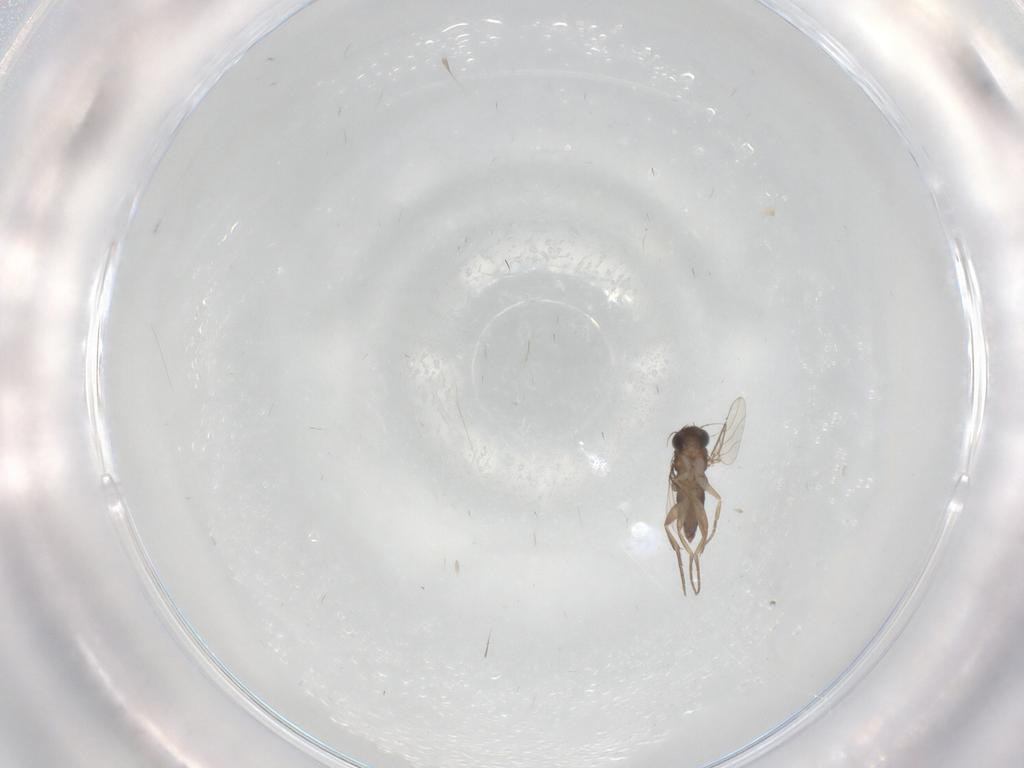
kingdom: Animalia
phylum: Arthropoda
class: Insecta
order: Diptera
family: Phoridae
